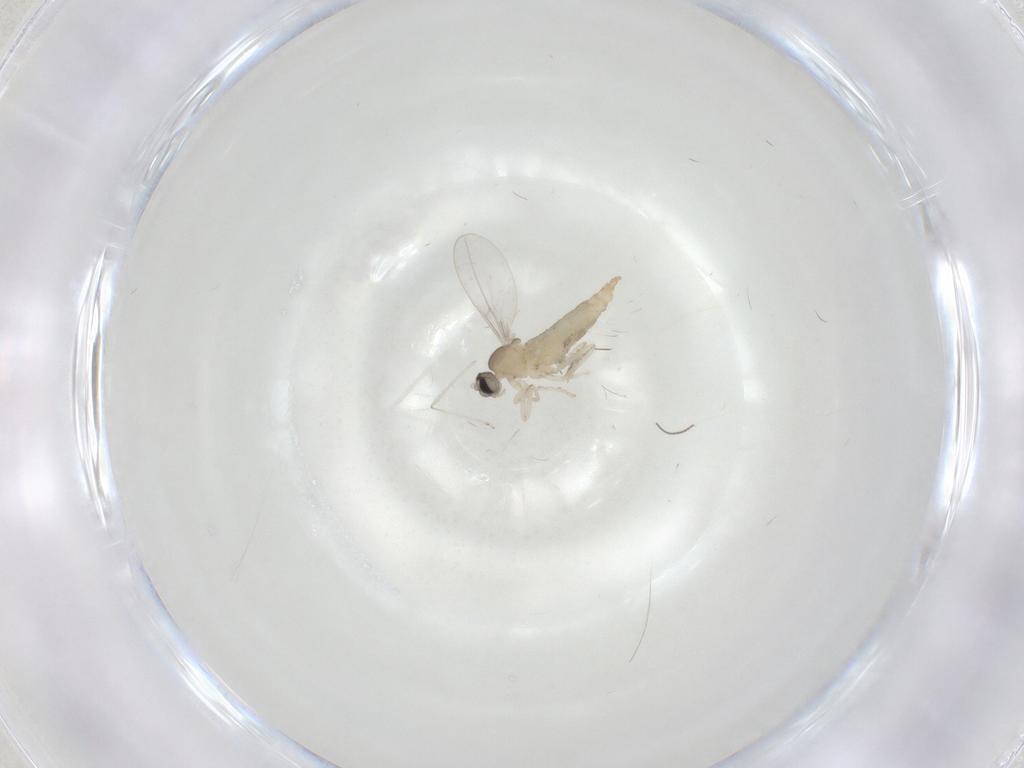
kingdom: Animalia
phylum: Arthropoda
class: Insecta
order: Diptera
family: Cecidomyiidae
